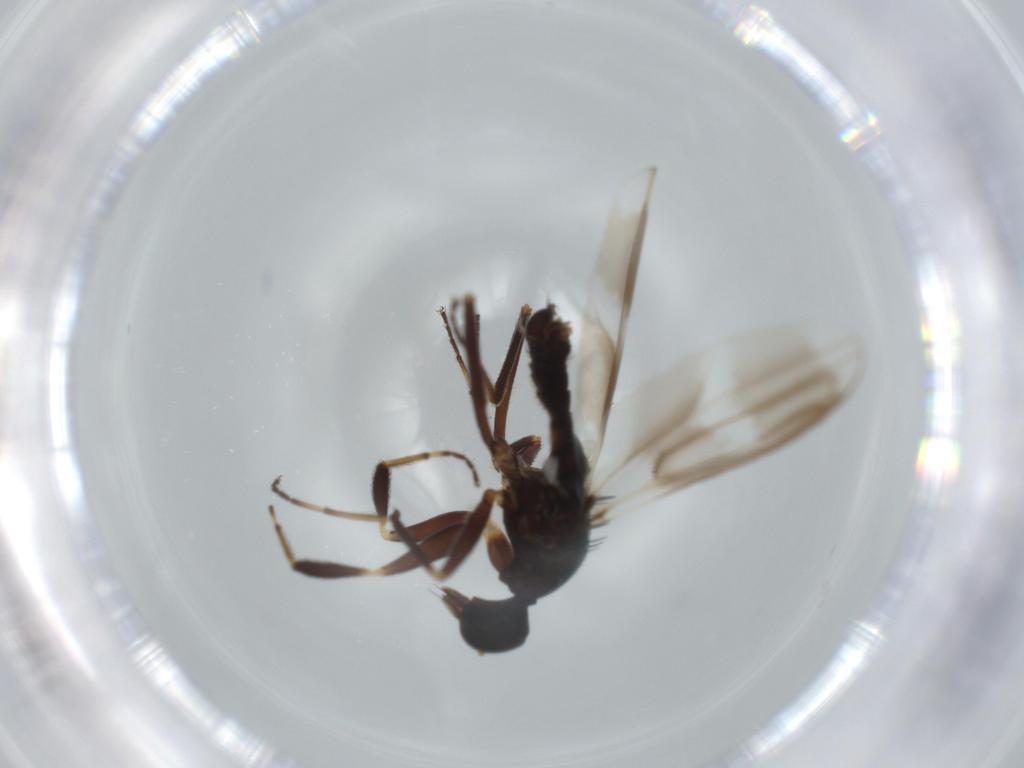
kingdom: Animalia
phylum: Arthropoda
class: Insecta
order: Diptera
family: Hybotidae
